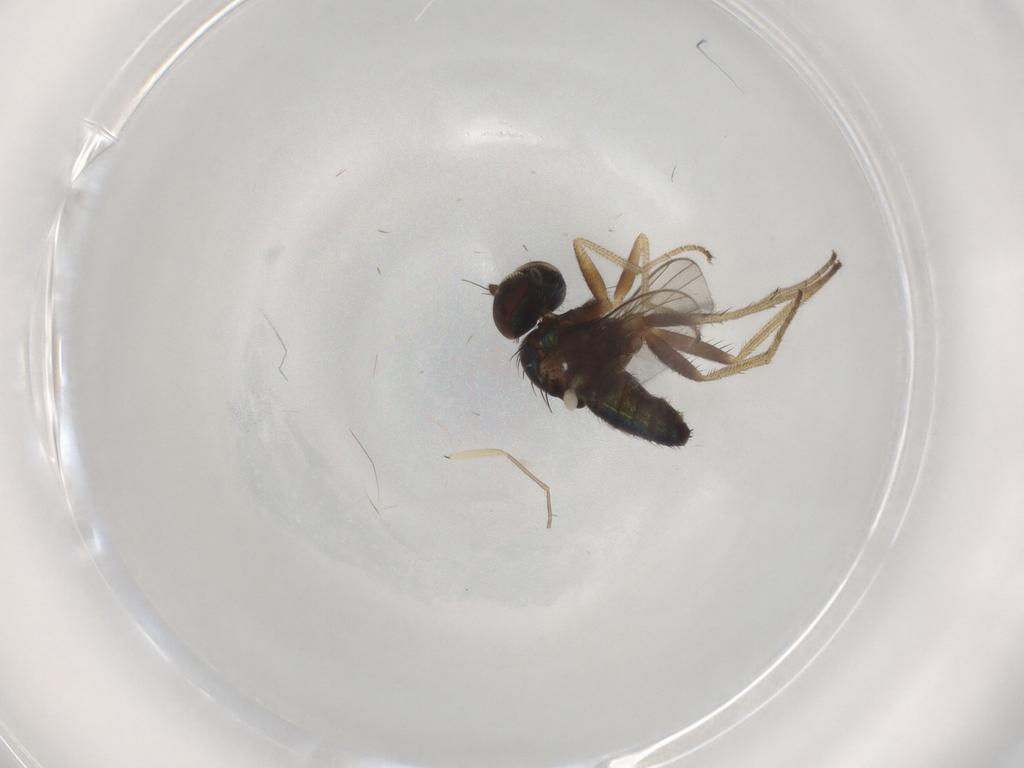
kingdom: Animalia
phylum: Arthropoda
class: Insecta
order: Diptera
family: Dolichopodidae
